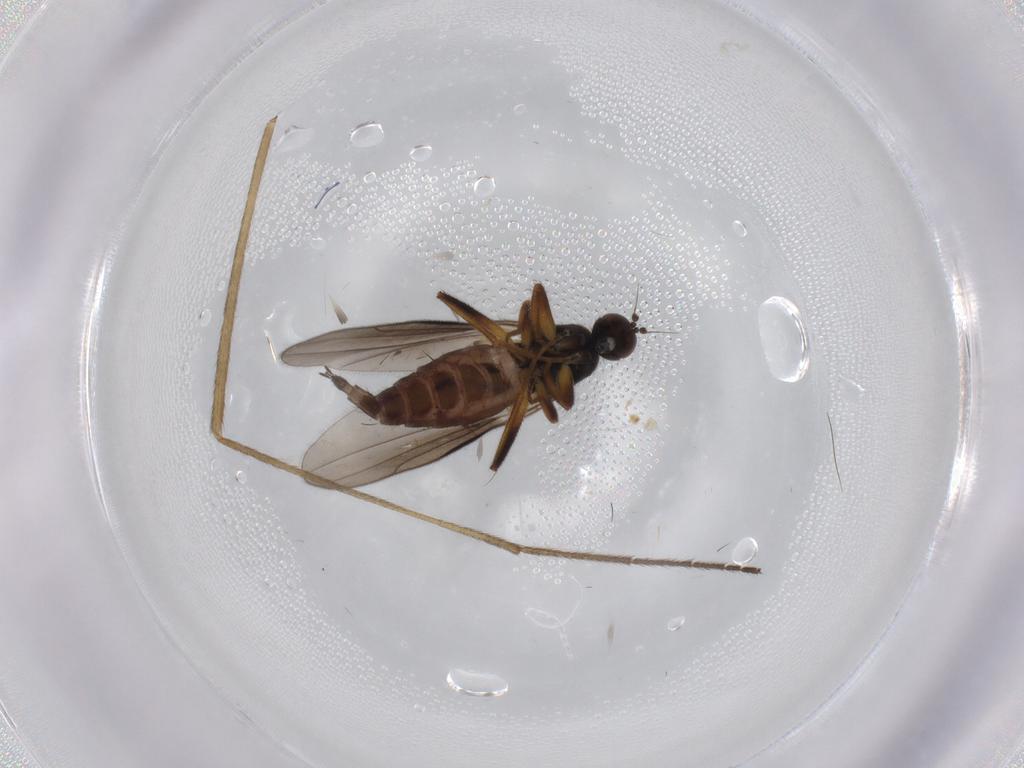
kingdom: Animalia
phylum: Arthropoda
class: Insecta
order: Diptera
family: Hybotidae
